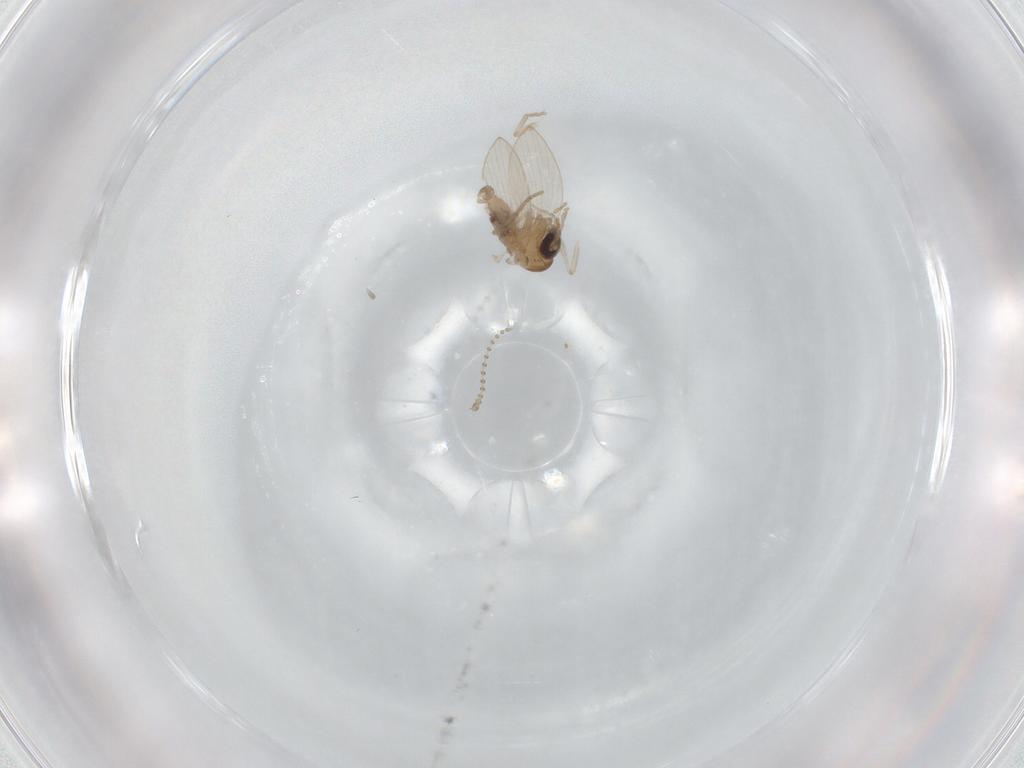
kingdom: Animalia
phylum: Arthropoda
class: Insecta
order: Diptera
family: Psychodidae
